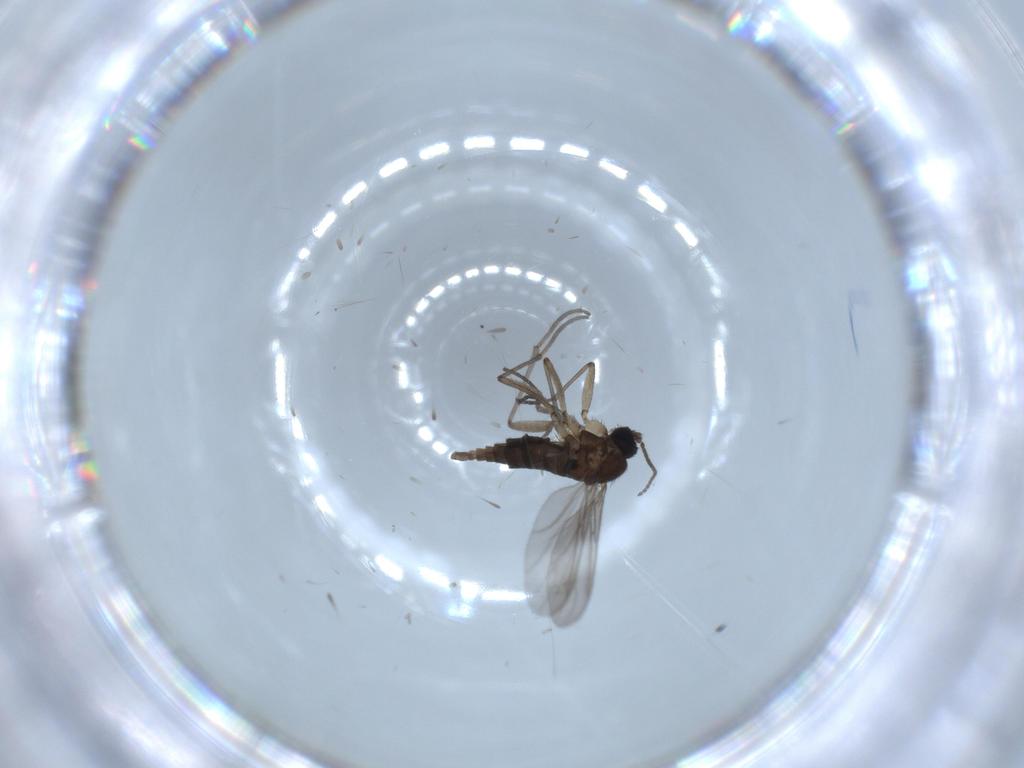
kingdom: Animalia
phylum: Arthropoda
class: Insecta
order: Diptera
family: Sciaridae
